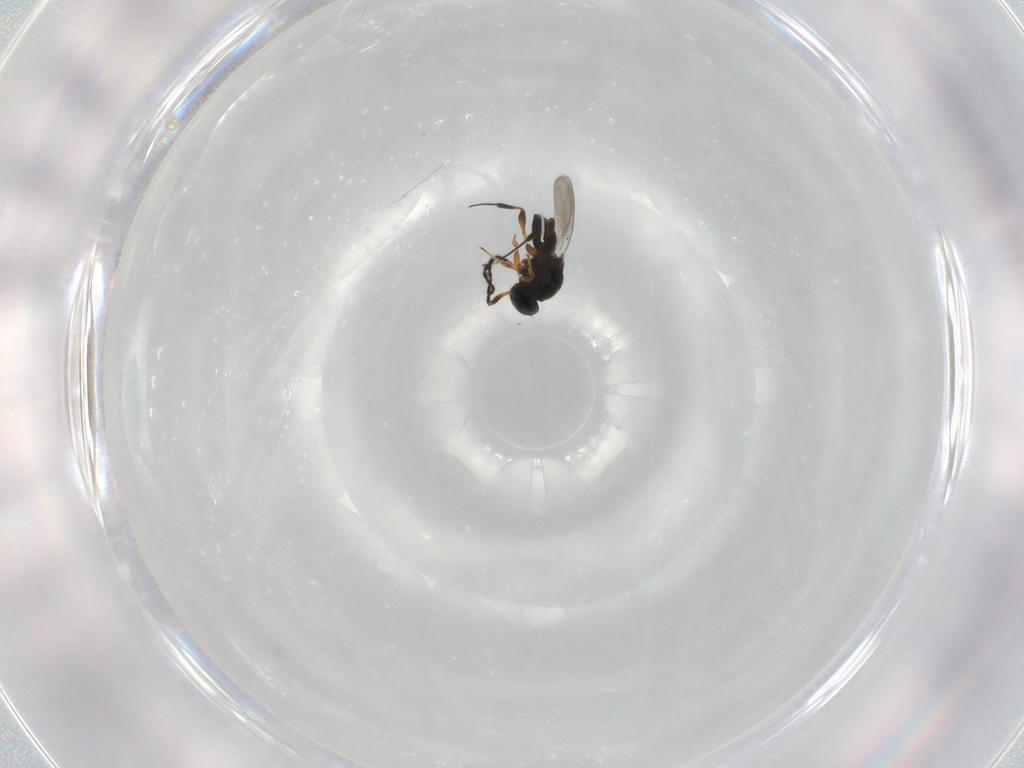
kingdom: Animalia
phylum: Arthropoda
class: Insecta
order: Hymenoptera
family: Platygastridae
